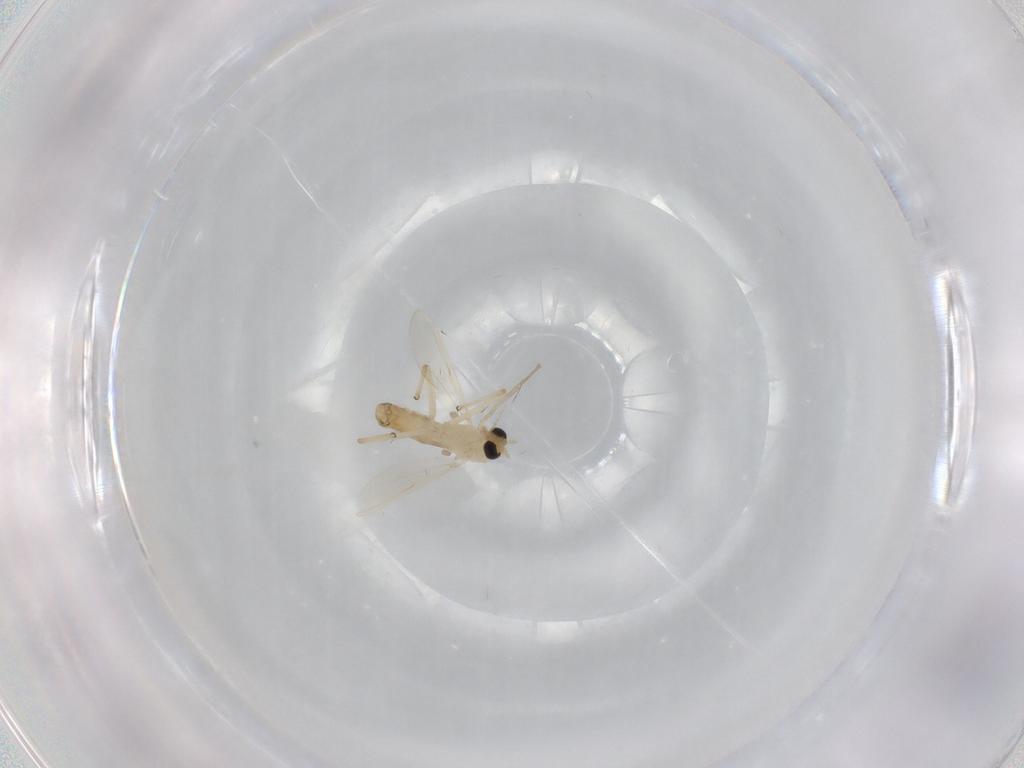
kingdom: Animalia
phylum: Arthropoda
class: Insecta
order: Diptera
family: Chironomidae
